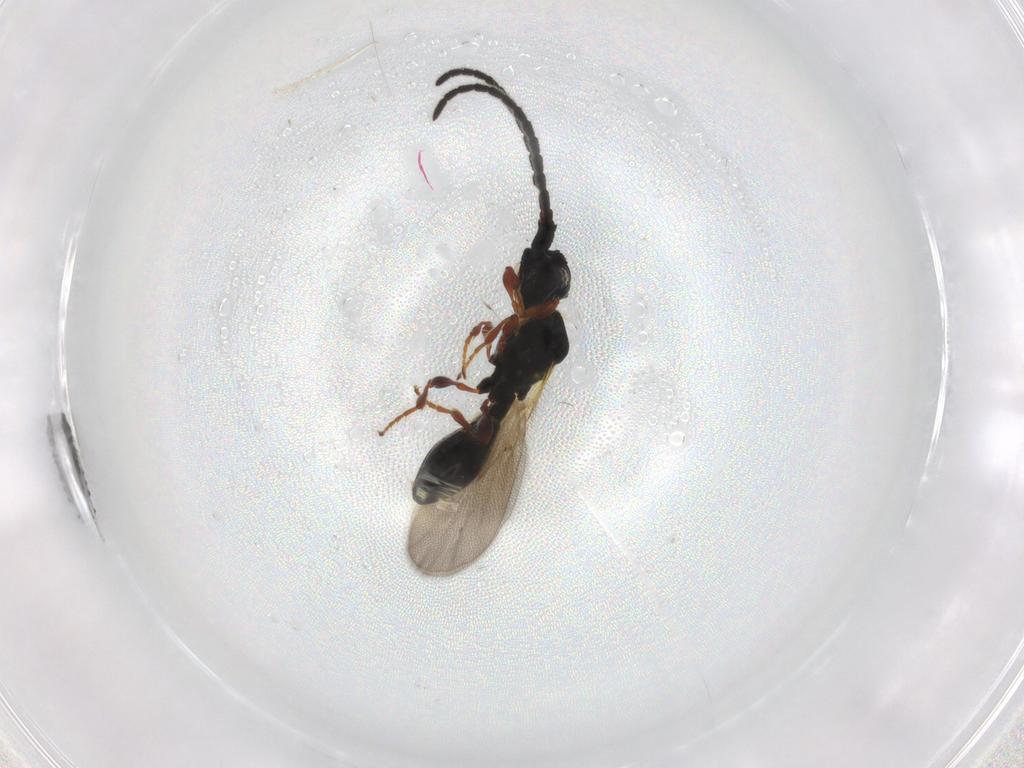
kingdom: Animalia
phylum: Arthropoda
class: Insecta
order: Hymenoptera
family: Diapriidae
